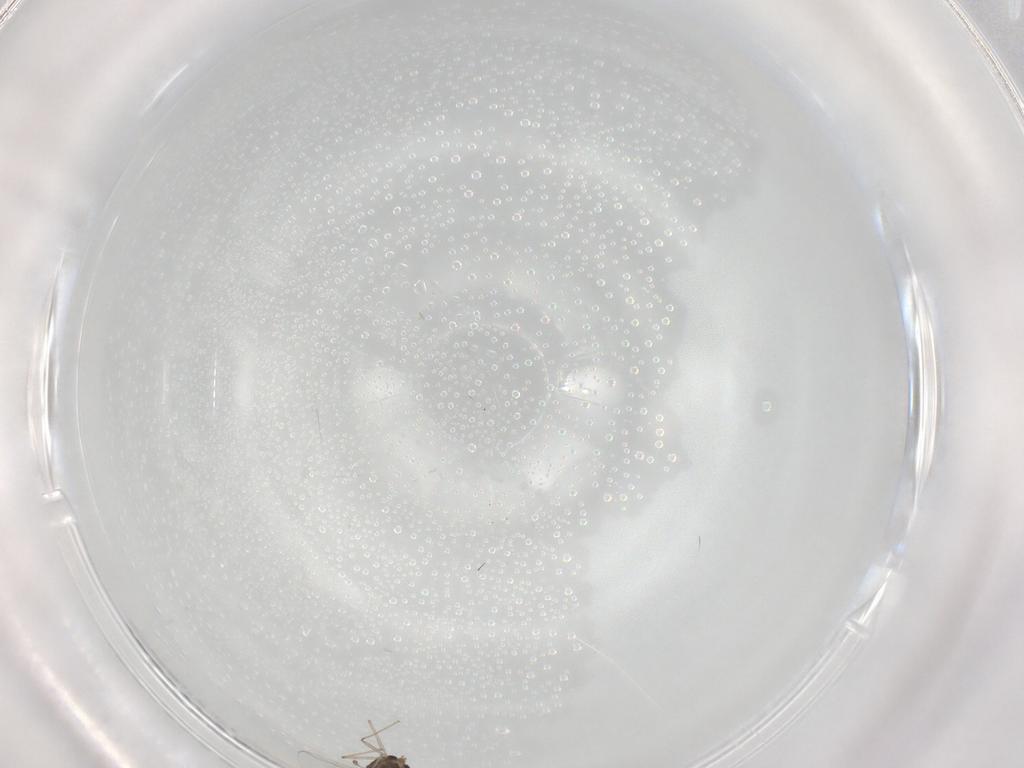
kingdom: Animalia
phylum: Arthropoda
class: Insecta
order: Diptera
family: Chironomidae
